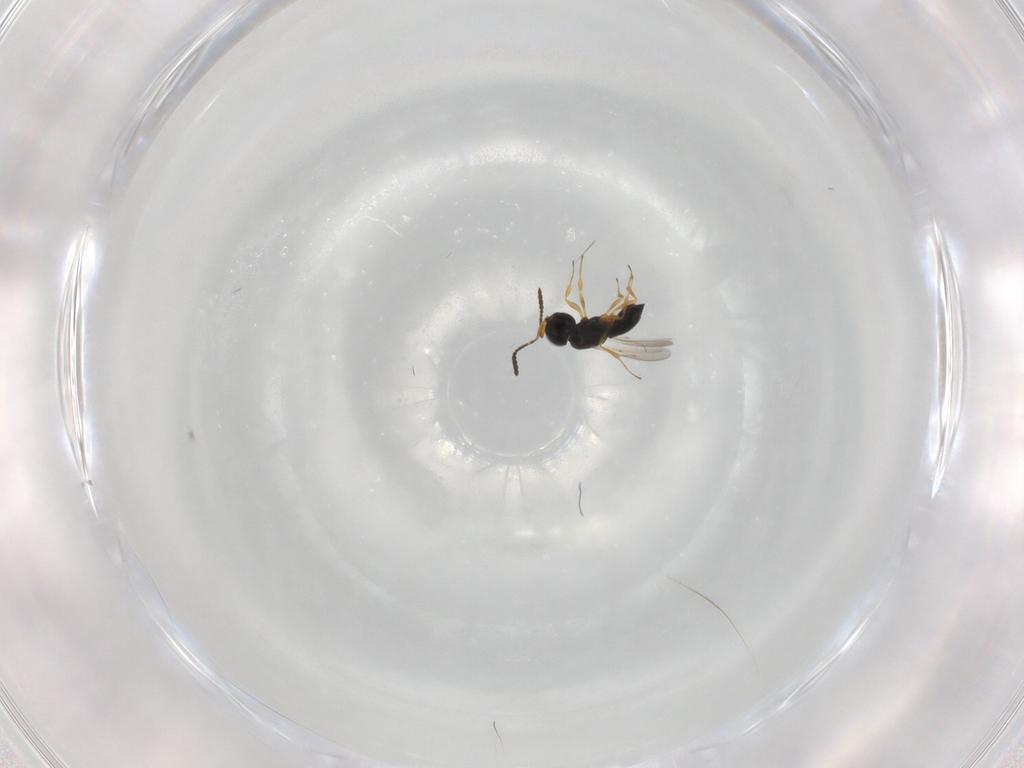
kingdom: Animalia
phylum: Arthropoda
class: Insecta
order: Hymenoptera
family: Scelionidae
